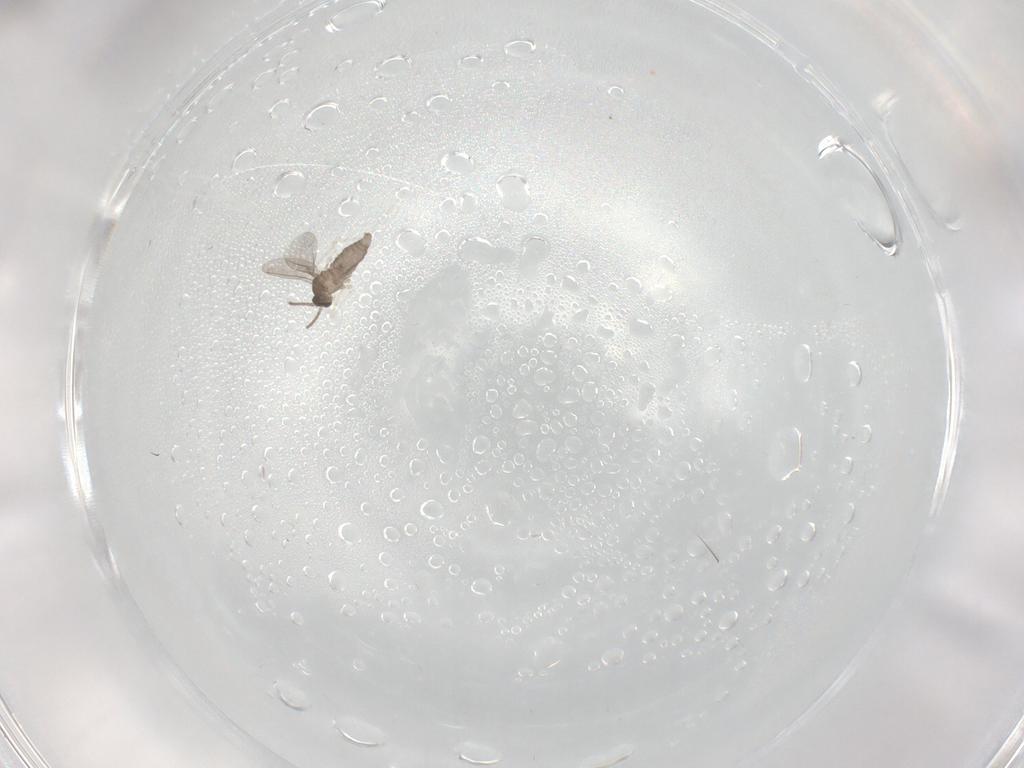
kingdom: Animalia
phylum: Arthropoda
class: Insecta
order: Diptera
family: Cecidomyiidae
